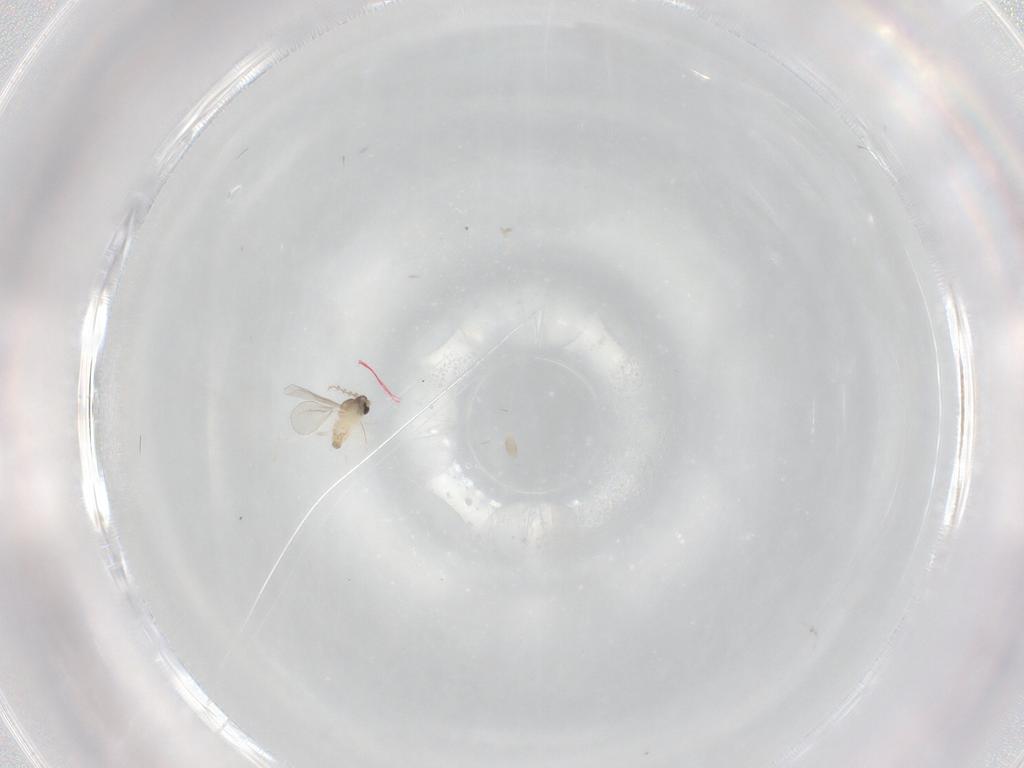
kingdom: Animalia
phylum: Arthropoda
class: Insecta
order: Diptera
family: Cecidomyiidae
